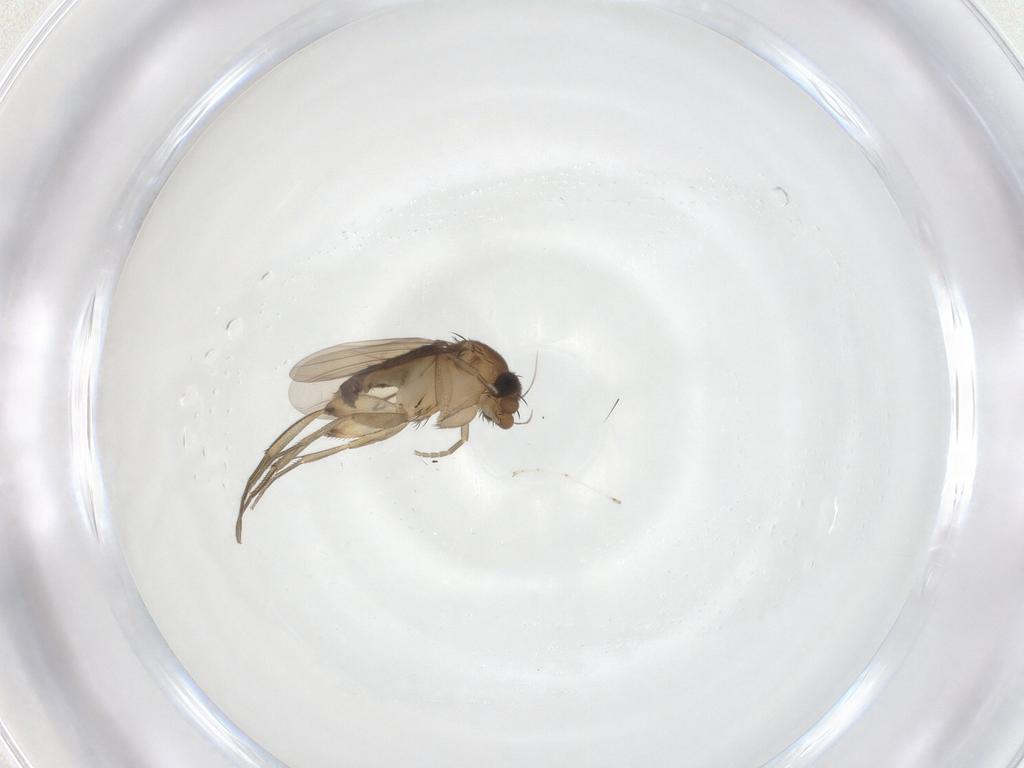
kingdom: Animalia
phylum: Arthropoda
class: Insecta
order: Diptera
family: Phoridae
